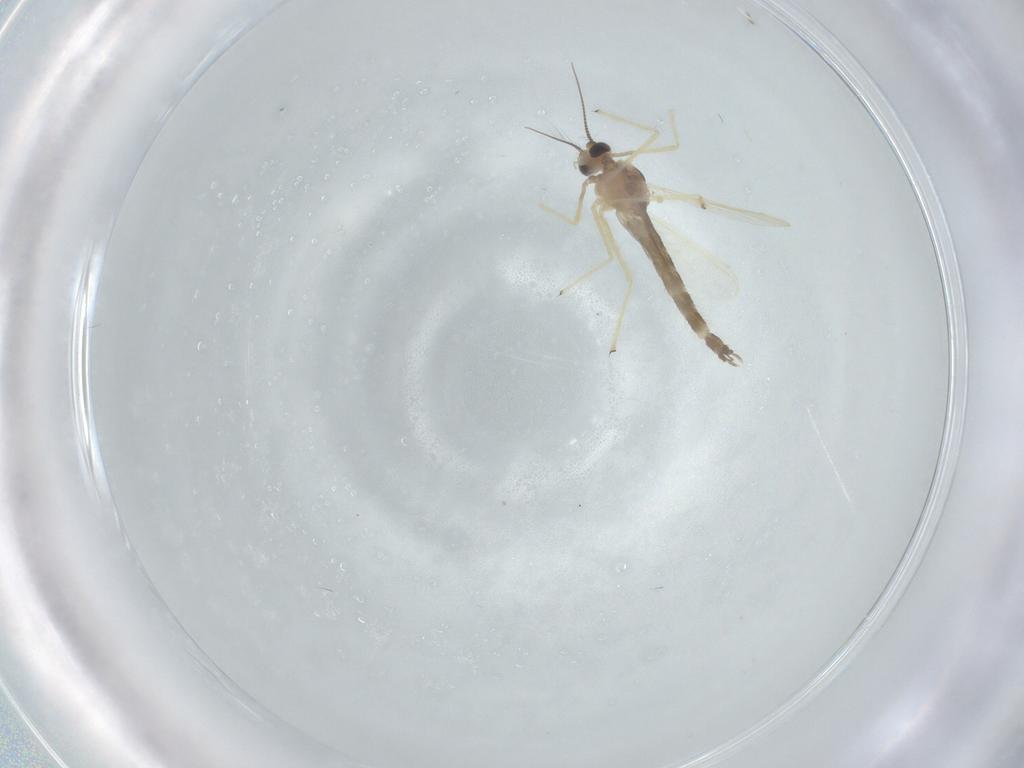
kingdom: Animalia
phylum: Arthropoda
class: Insecta
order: Diptera
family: Chironomidae
